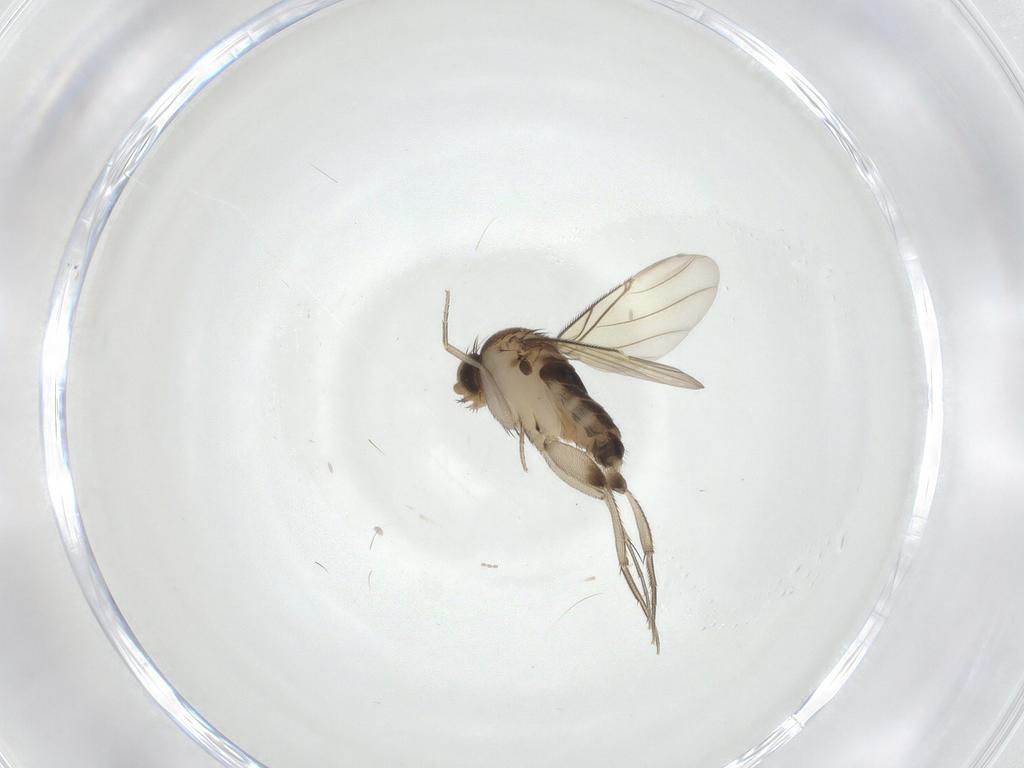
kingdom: Animalia
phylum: Arthropoda
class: Insecta
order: Diptera
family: Phoridae
